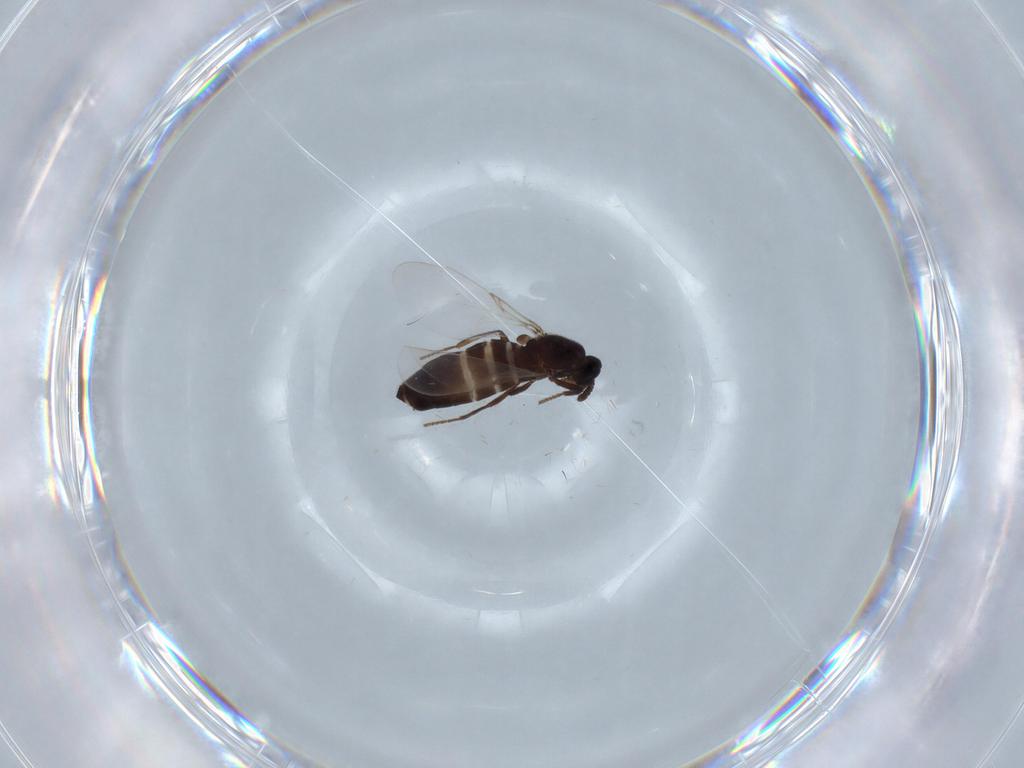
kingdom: Animalia
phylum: Arthropoda
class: Insecta
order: Diptera
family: Scatopsidae
